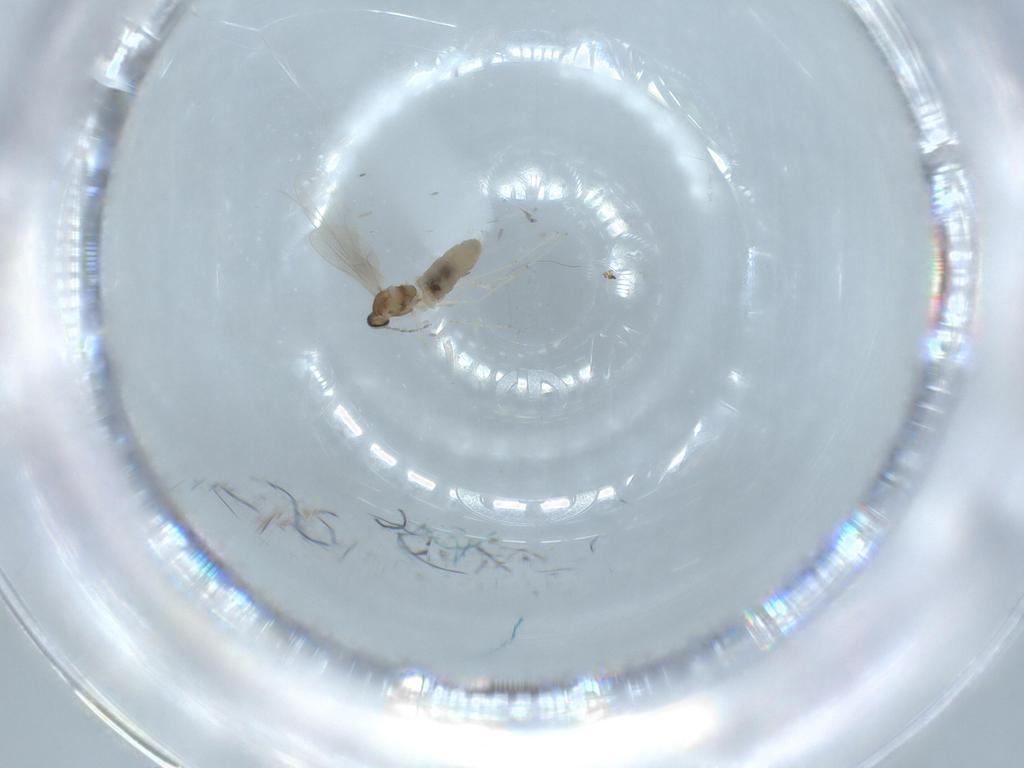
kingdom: Animalia
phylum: Arthropoda
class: Insecta
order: Diptera
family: Cecidomyiidae
